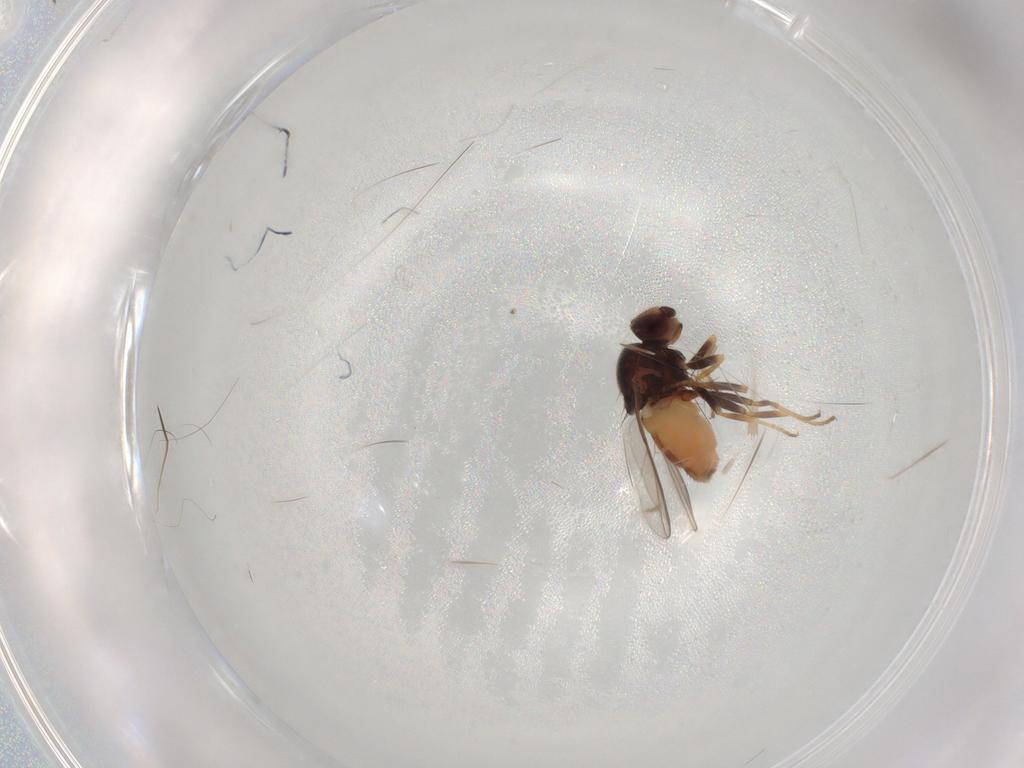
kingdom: Animalia
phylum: Arthropoda
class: Insecta
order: Diptera
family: Chloropidae
